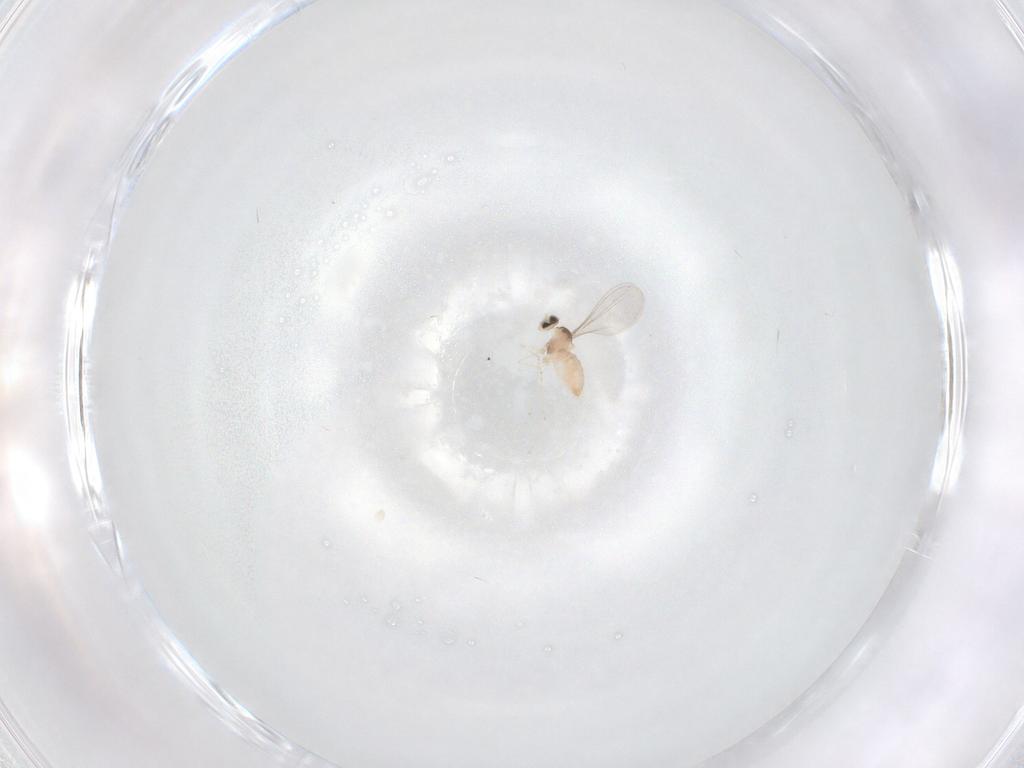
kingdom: Animalia
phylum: Arthropoda
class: Insecta
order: Diptera
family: Cecidomyiidae
